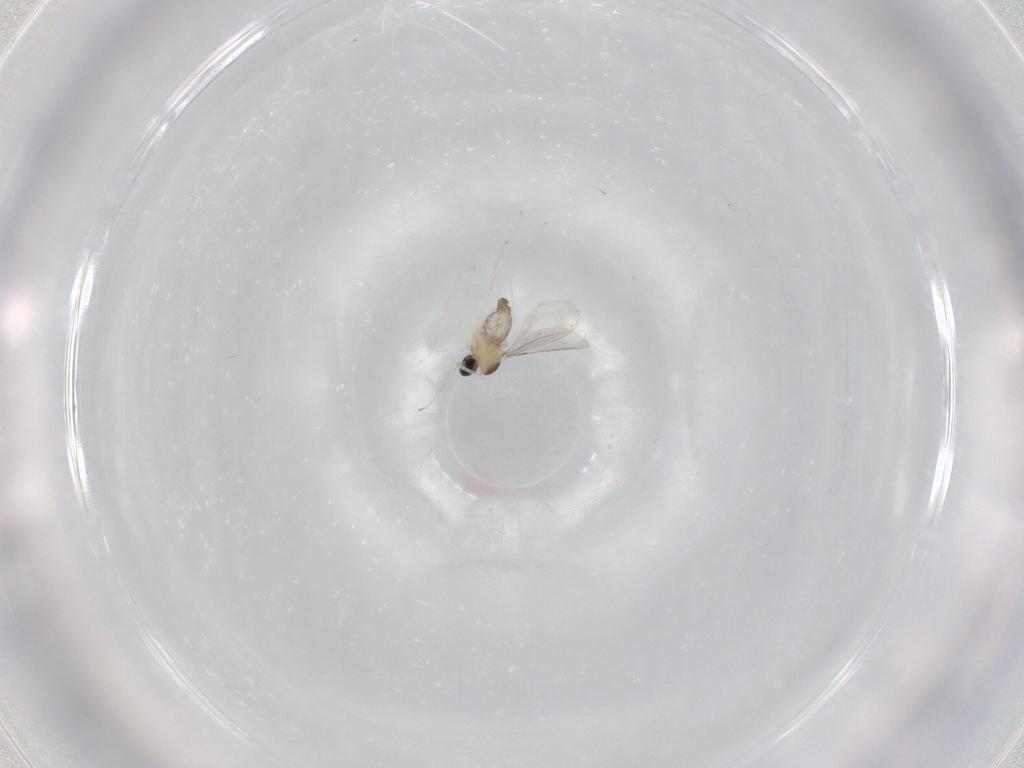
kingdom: Animalia
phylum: Arthropoda
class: Insecta
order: Diptera
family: Cecidomyiidae
